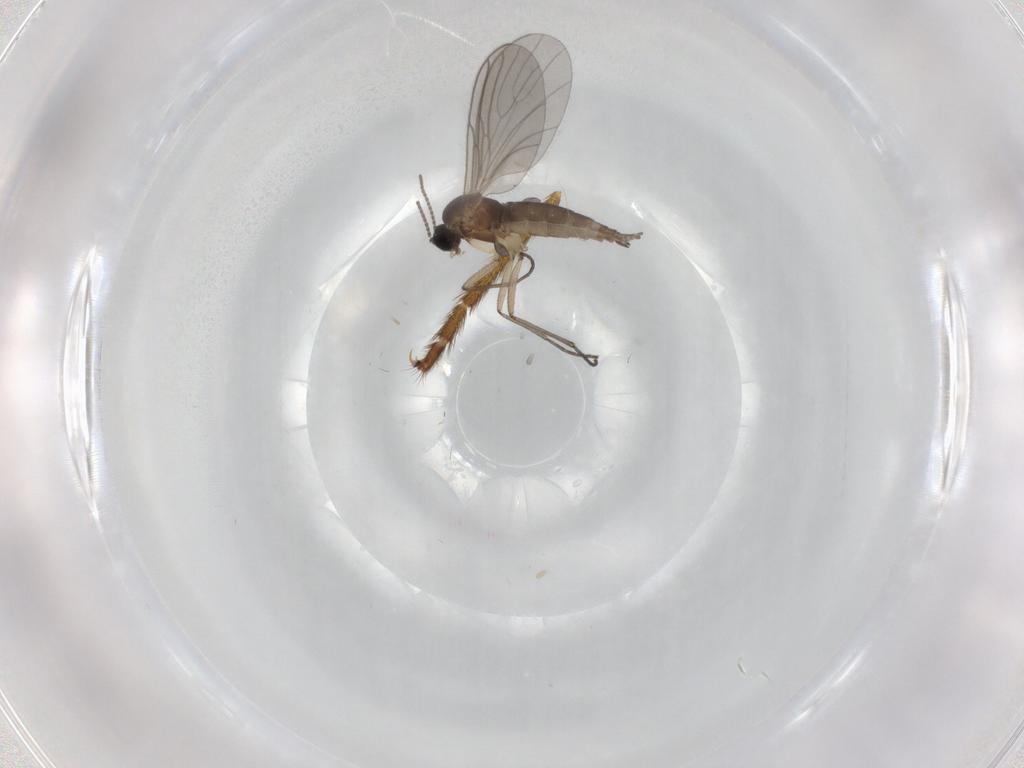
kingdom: Animalia
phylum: Arthropoda
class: Insecta
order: Diptera
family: Sciaridae
